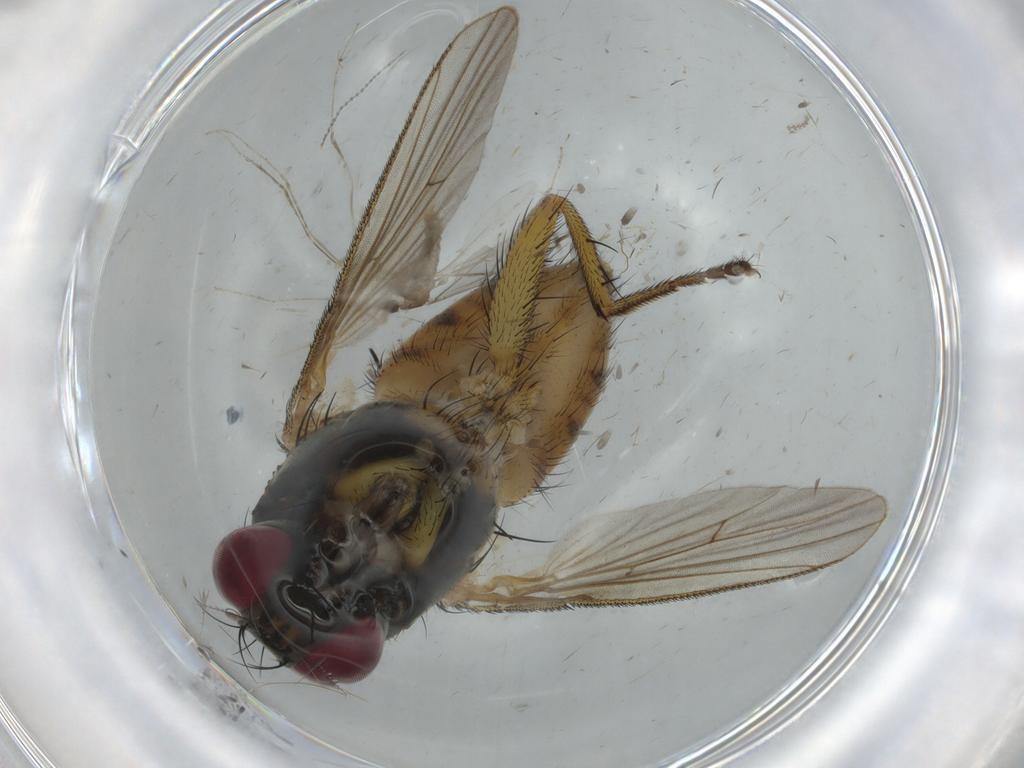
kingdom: Animalia
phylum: Arthropoda
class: Insecta
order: Diptera
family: Muscidae
